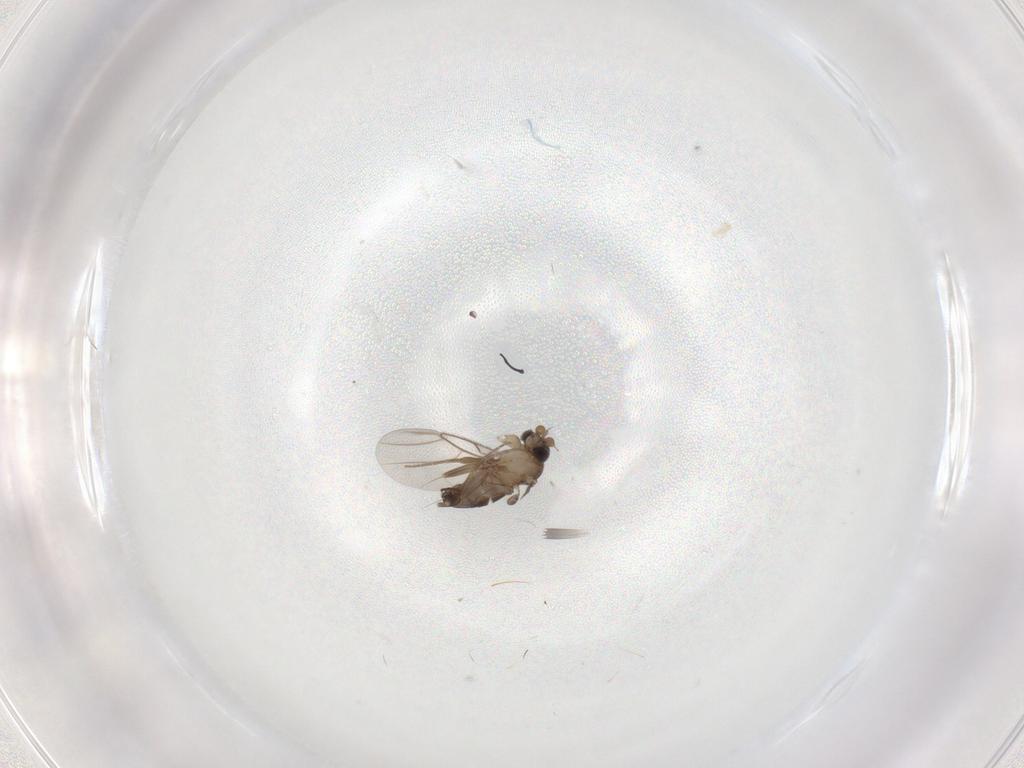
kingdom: Animalia
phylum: Arthropoda
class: Insecta
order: Diptera
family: Phoridae
